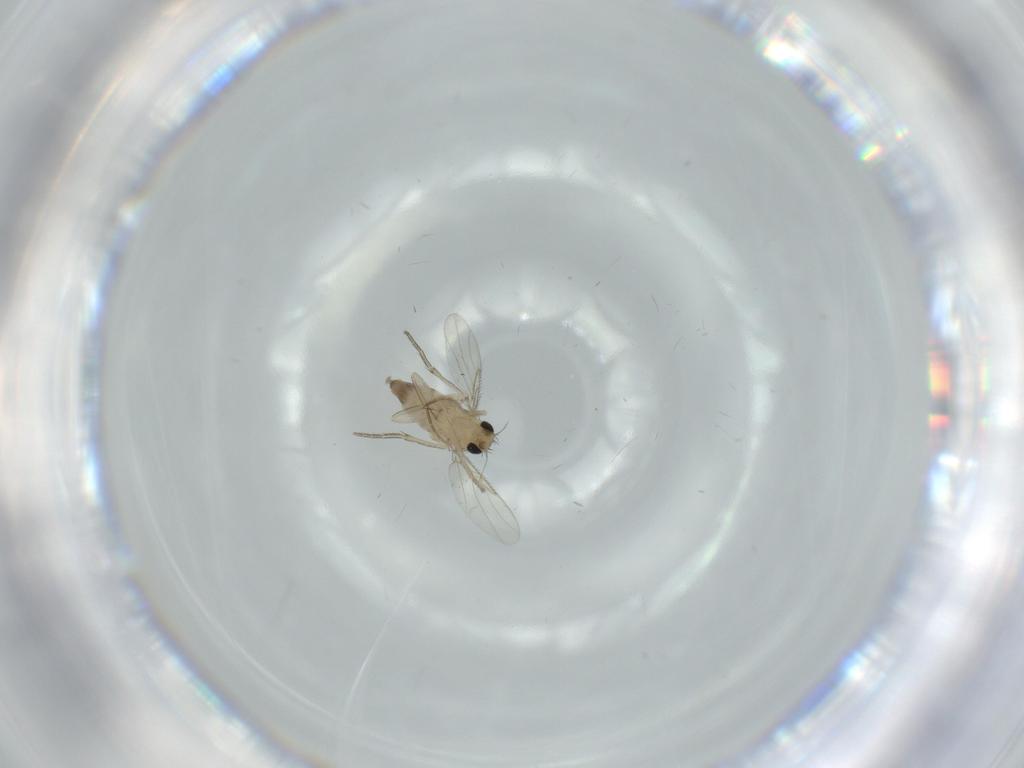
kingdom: Animalia
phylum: Arthropoda
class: Insecta
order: Diptera
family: Phoridae
